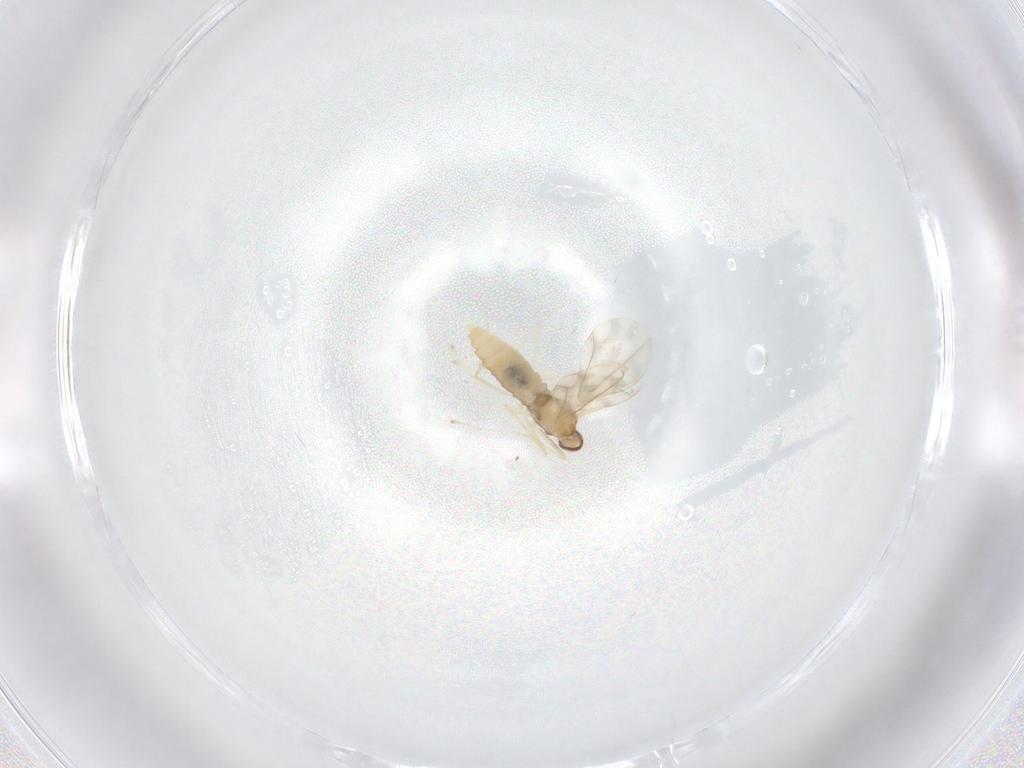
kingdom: Animalia
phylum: Arthropoda
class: Insecta
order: Diptera
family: Cecidomyiidae
